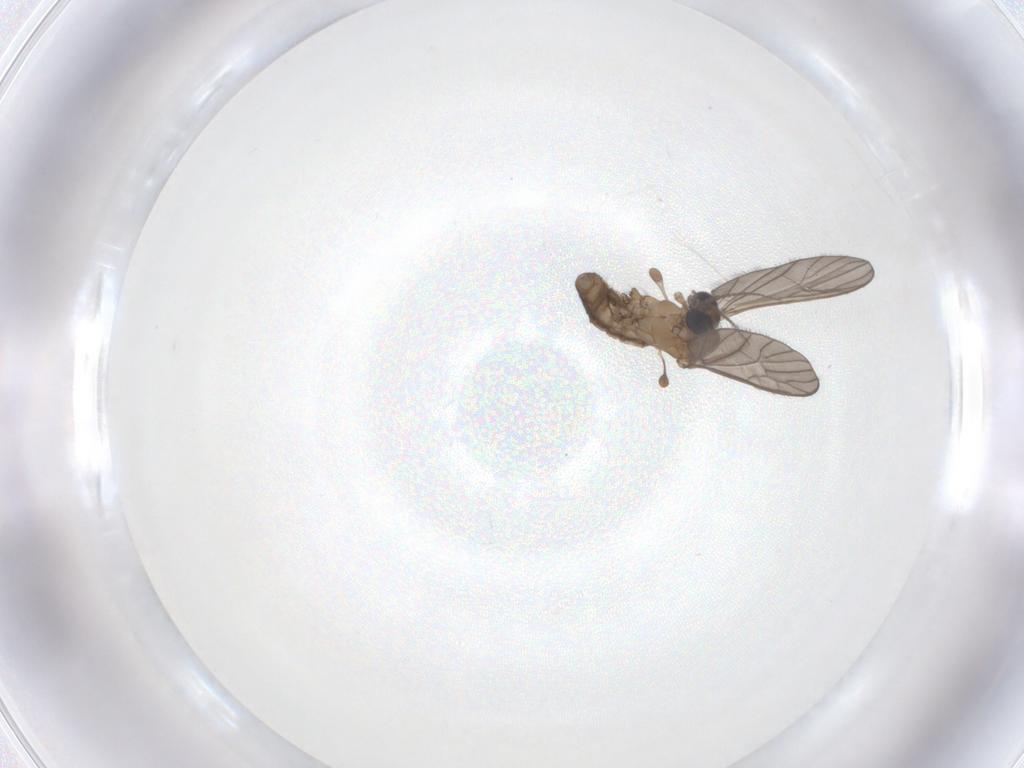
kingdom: Animalia
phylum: Arthropoda
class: Insecta
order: Diptera
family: Limoniidae
